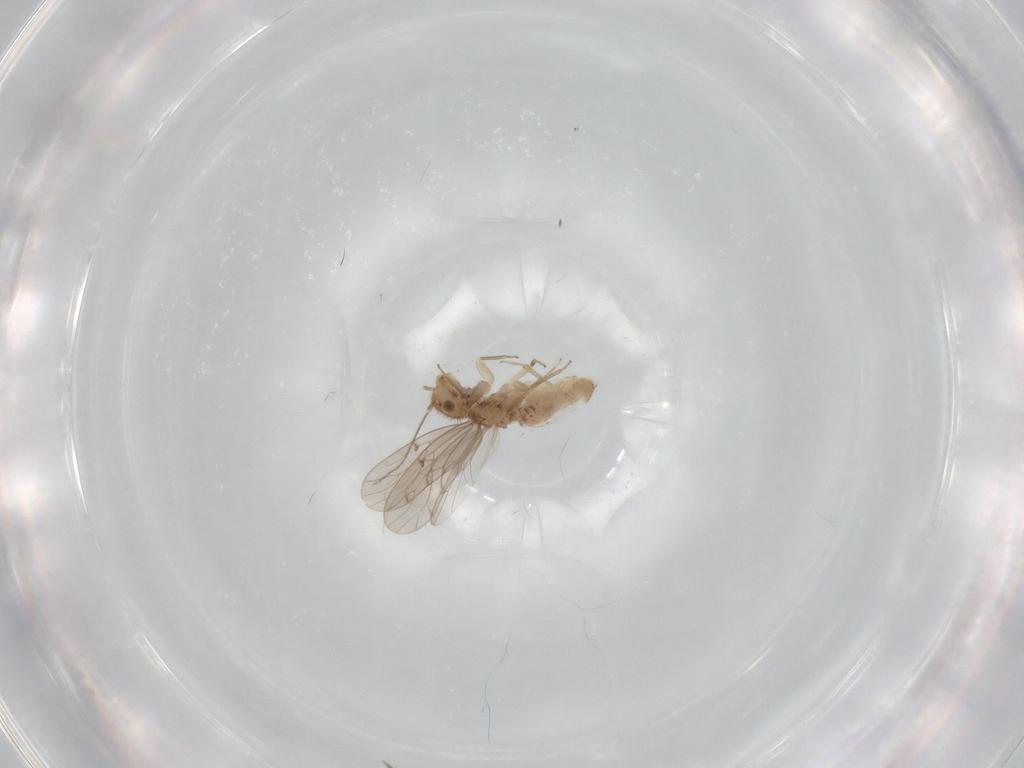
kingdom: Animalia
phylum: Arthropoda
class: Insecta
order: Psocodea
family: Ectopsocidae
